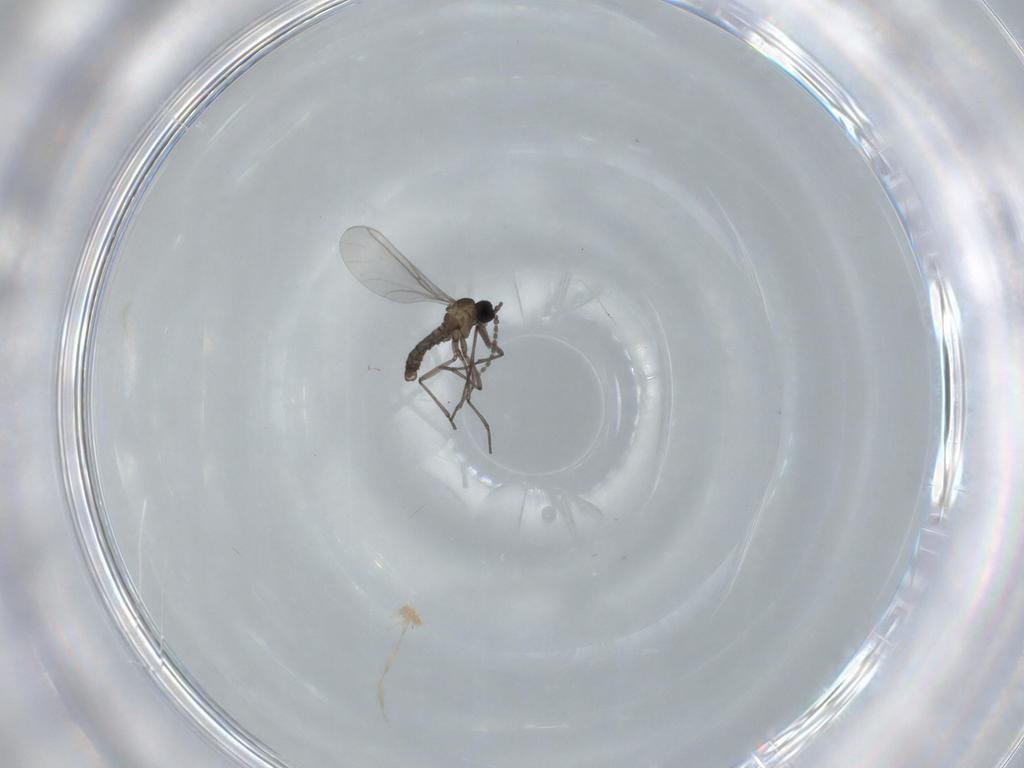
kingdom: Animalia
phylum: Arthropoda
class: Insecta
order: Diptera
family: Sciaridae
